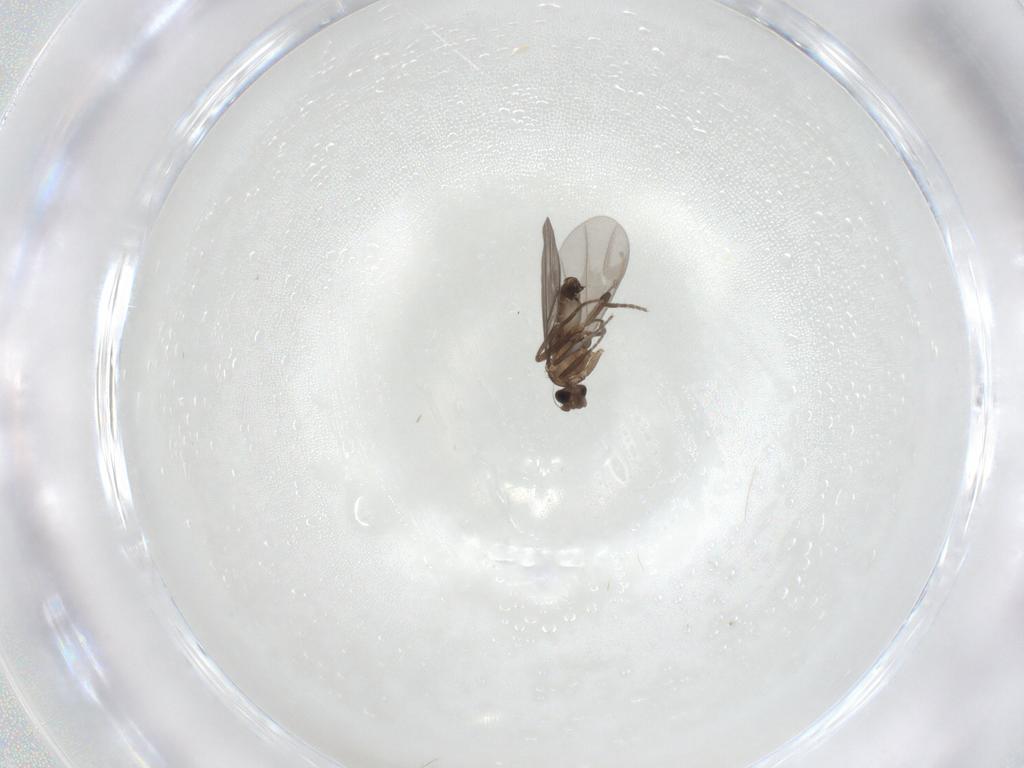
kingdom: Animalia
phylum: Arthropoda
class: Insecta
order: Diptera
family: Phoridae
